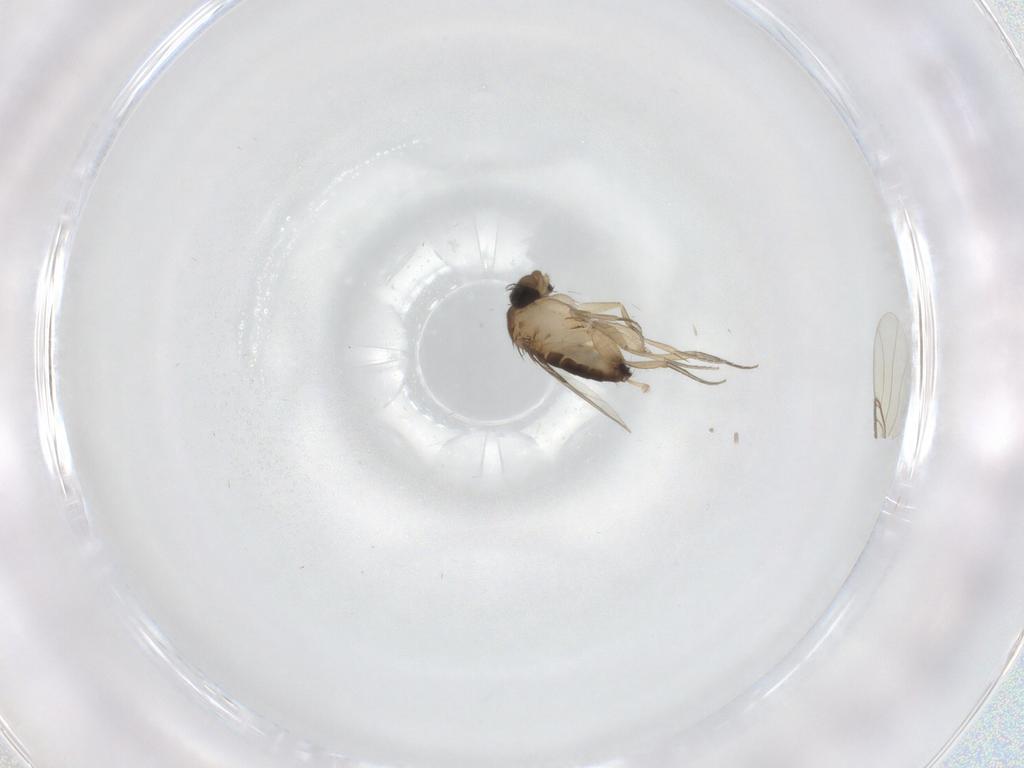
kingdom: Animalia
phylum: Arthropoda
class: Insecta
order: Diptera
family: Phoridae
